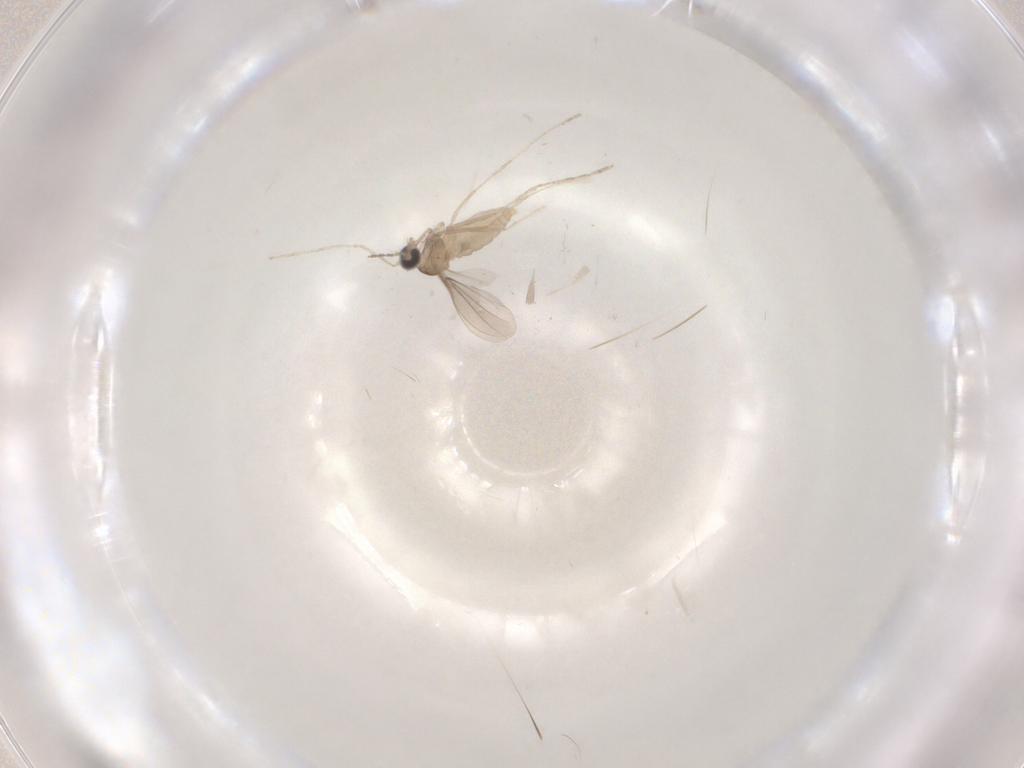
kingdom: Animalia
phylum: Arthropoda
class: Insecta
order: Diptera
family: Cecidomyiidae
